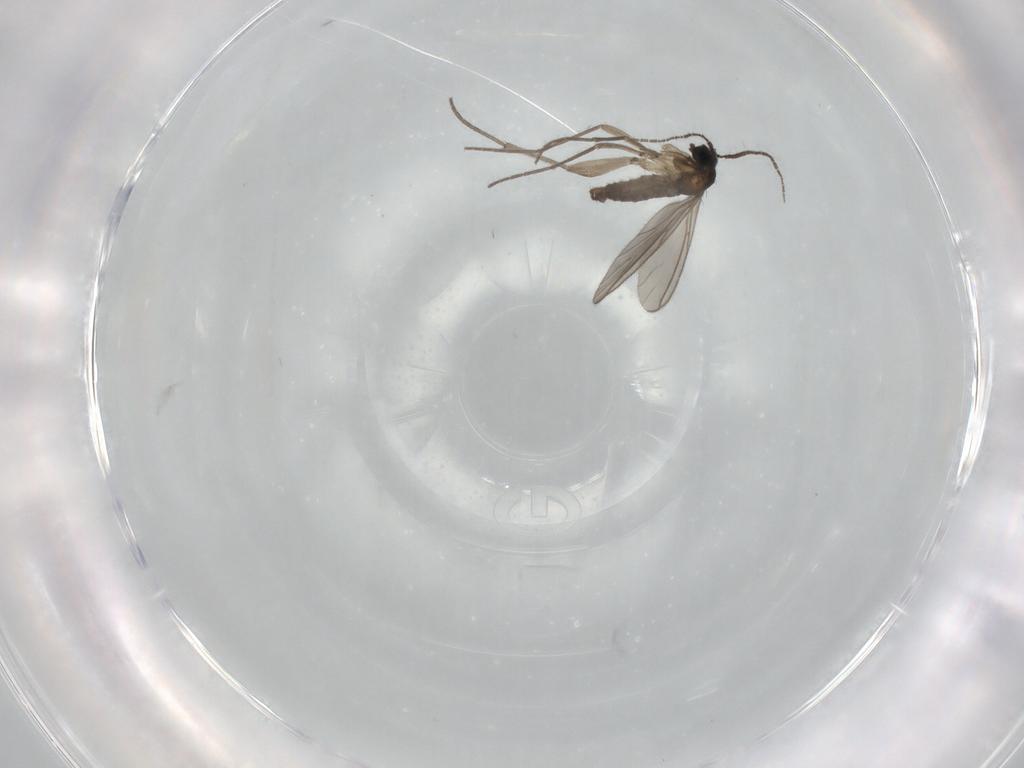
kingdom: Animalia
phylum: Arthropoda
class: Insecta
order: Diptera
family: Sciaridae
